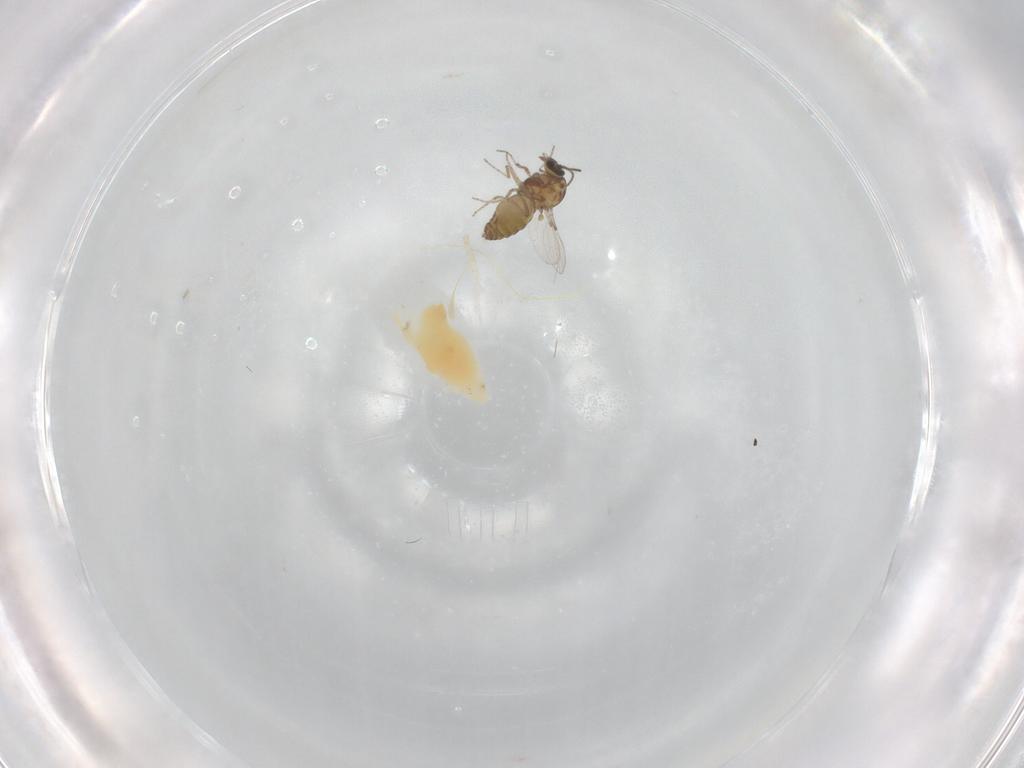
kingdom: Animalia
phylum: Arthropoda
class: Insecta
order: Diptera
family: Ceratopogonidae
